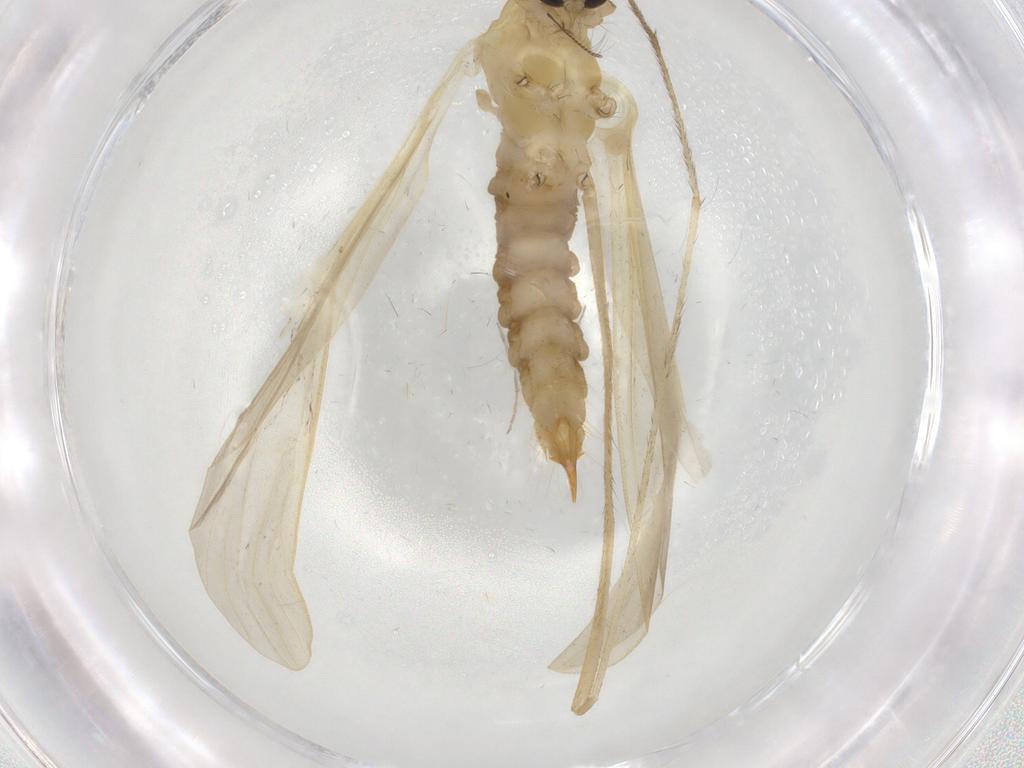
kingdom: Animalia
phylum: Arthropoda
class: Insecta
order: Diptera
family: Limoniidae
